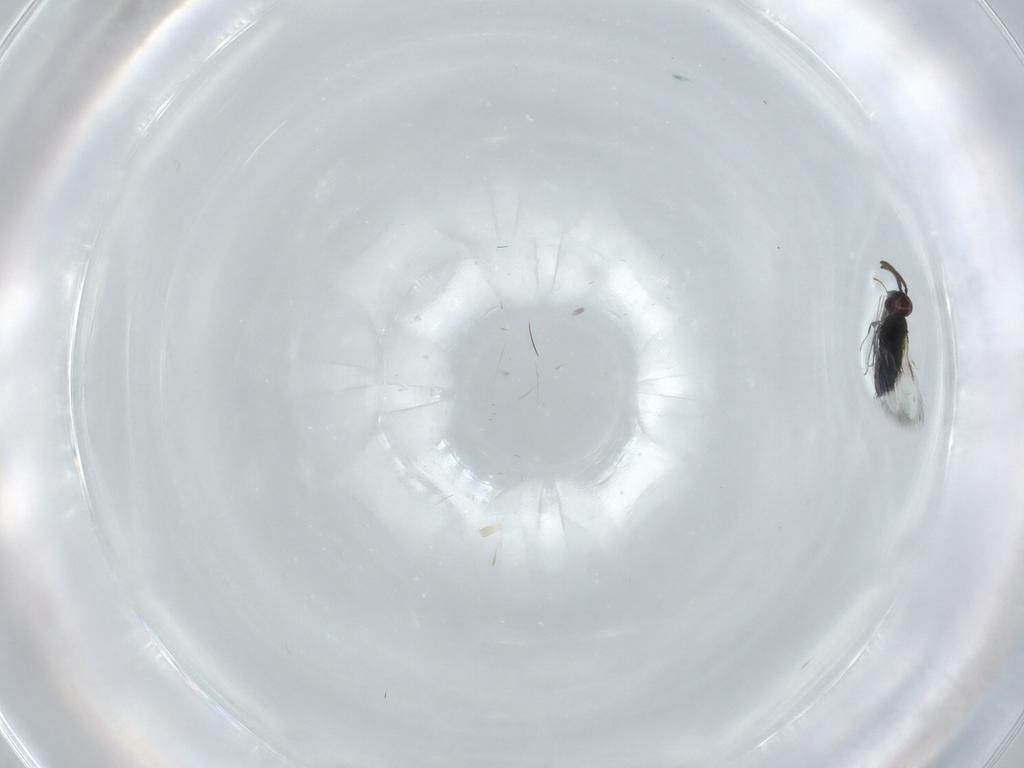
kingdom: Animalia
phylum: Arthropoda
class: Insecta
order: Hymenoptera
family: Signiphoridae
